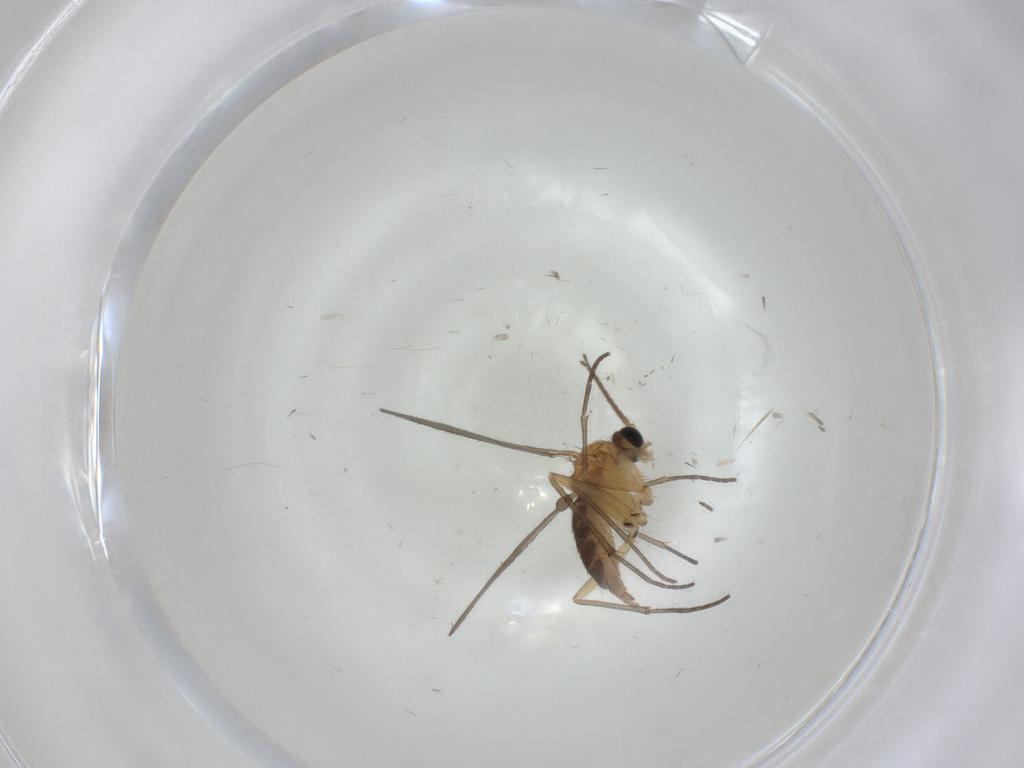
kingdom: Animalia
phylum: Arthropoda
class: Insecta
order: Diptera
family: Cecidomyiidae
